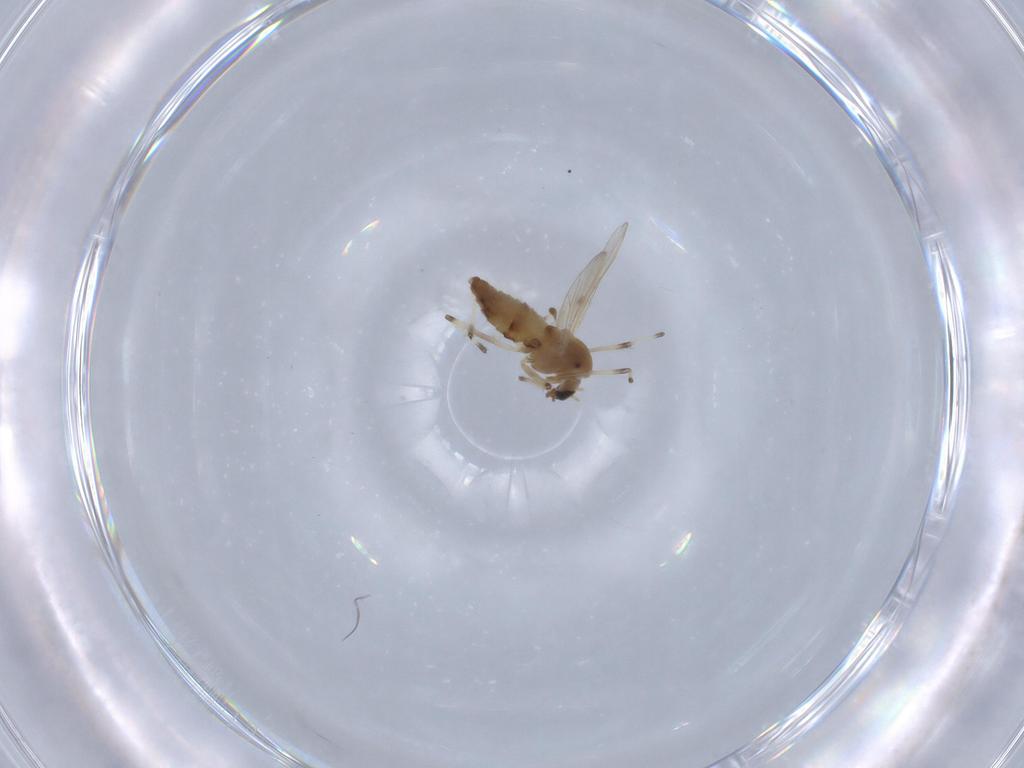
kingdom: Animalia
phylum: Arthropoda
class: Insecta
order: Diptera
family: Chironomidae
